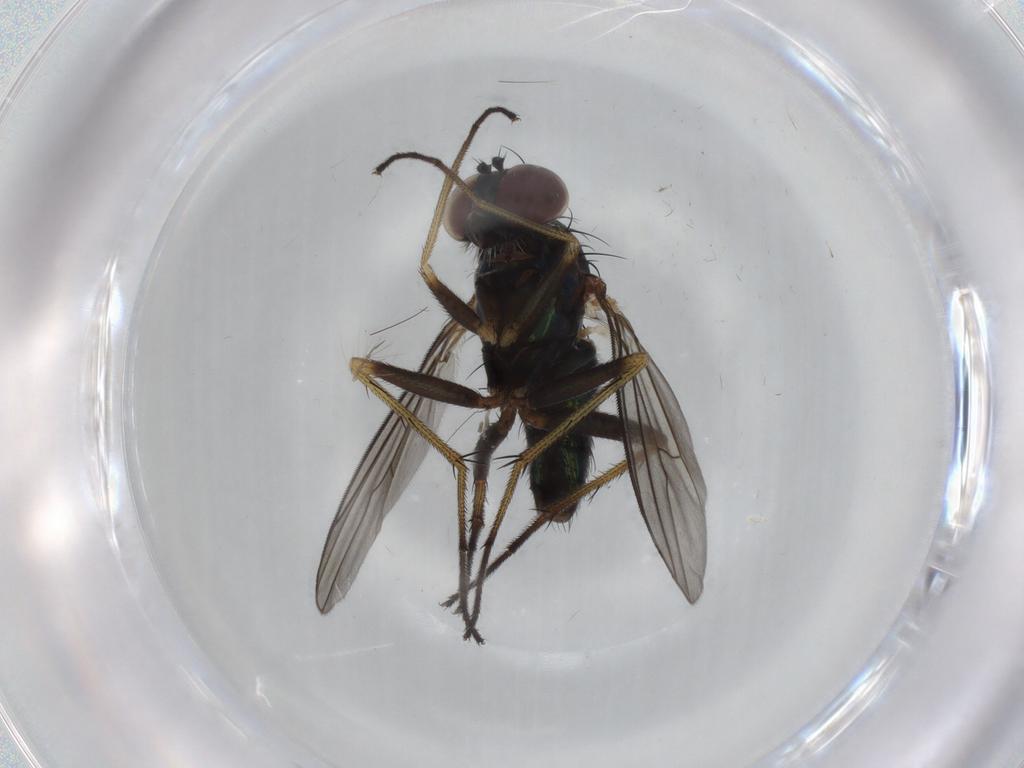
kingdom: Animalia
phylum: Arthropoda
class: Insecta
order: Diptera
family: Dolichopodidae
